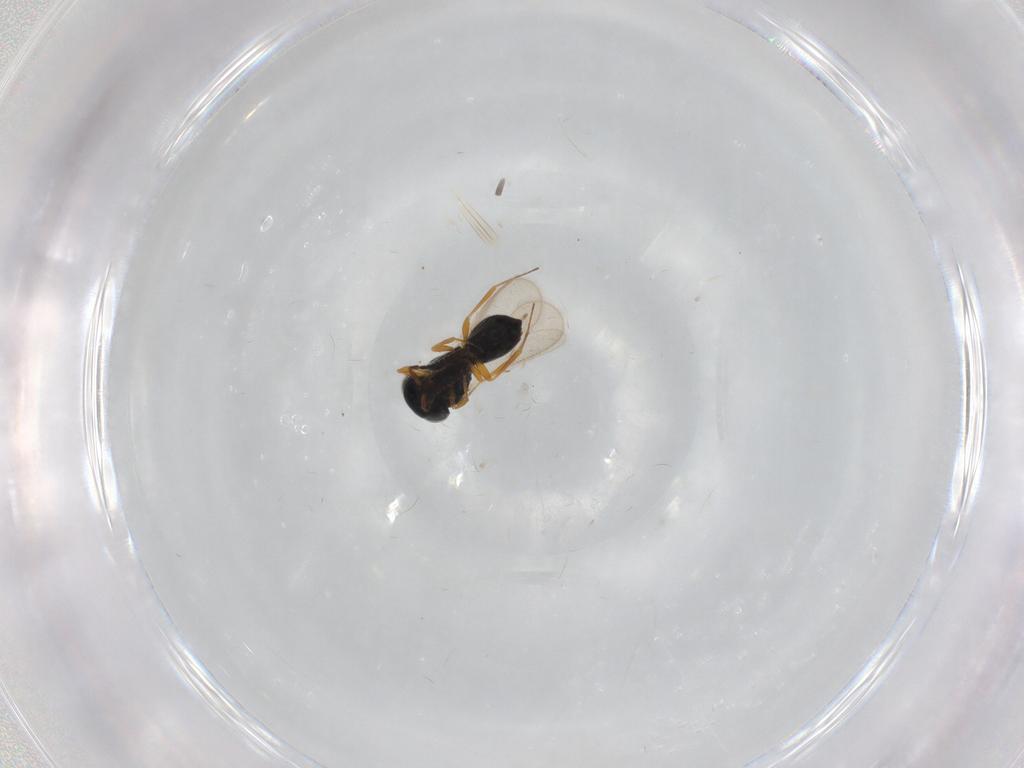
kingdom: Animalia
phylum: Arthropoda
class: Insecta
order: Hymenoptera
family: Scelionidae
